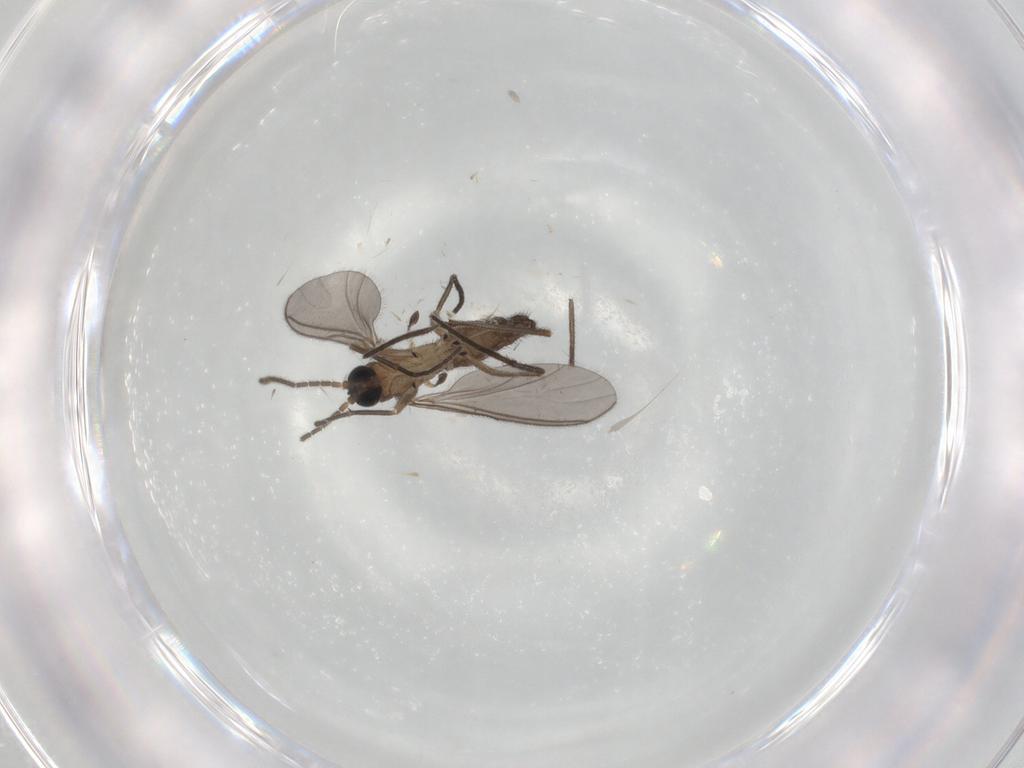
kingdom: Animalia
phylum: Arthropoda
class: Insecta
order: Diptera
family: Sciaridae
